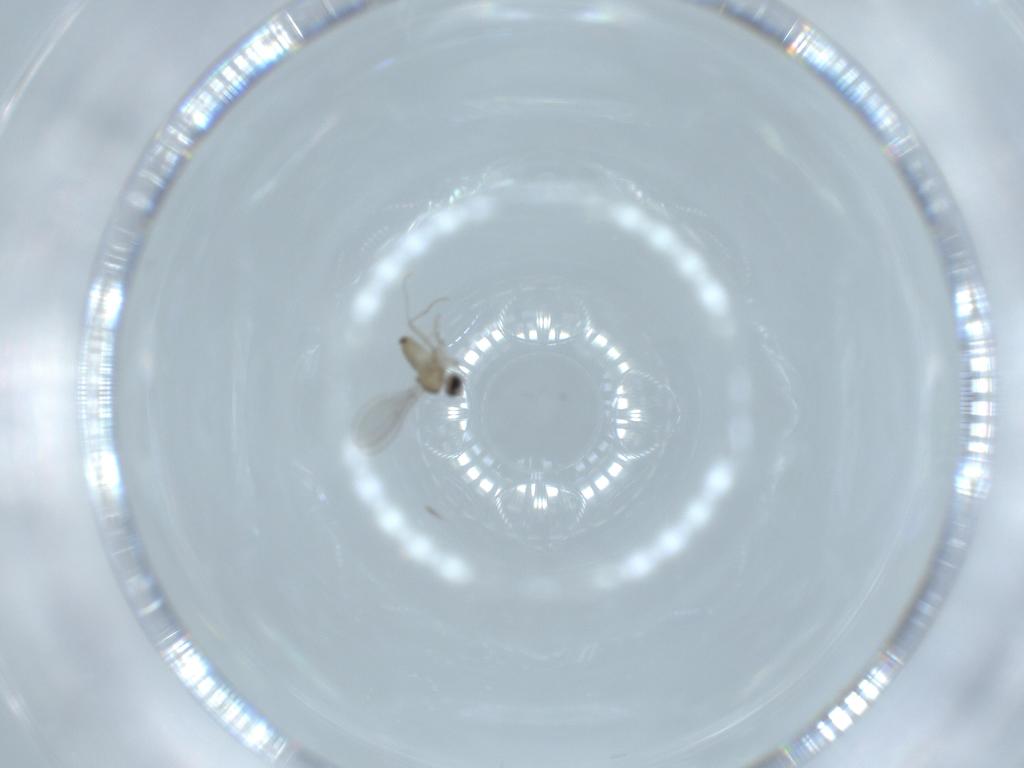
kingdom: Animalia
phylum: Arthropoda
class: Insecta
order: Diptera
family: Cecidomyiidae
